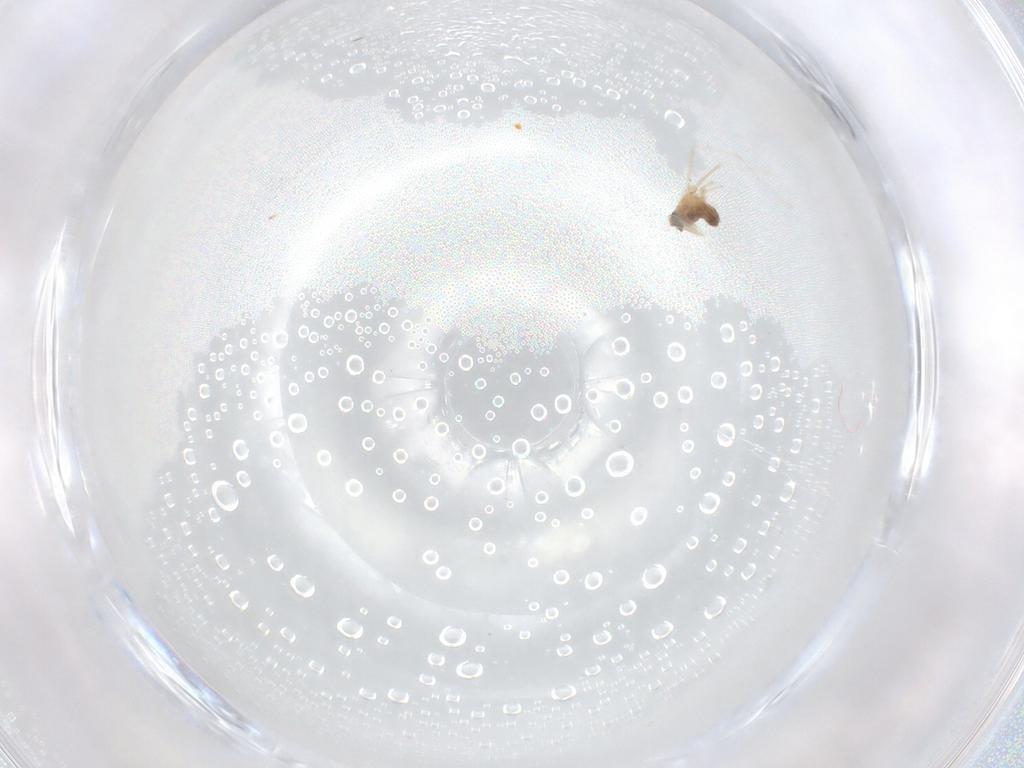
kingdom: Animalia
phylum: Arthropoda
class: Insecta
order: Diptera
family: Cecidomyiidae
